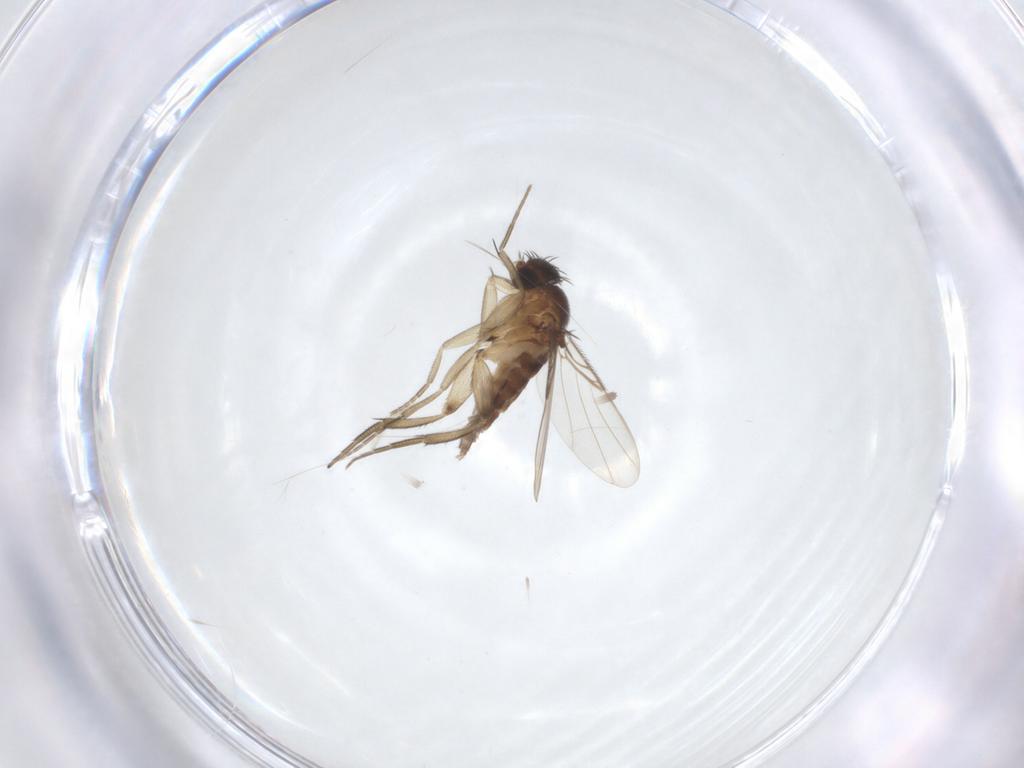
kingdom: Animalia
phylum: Arthropoda
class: Insecta
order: Diptera
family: Phoridae
